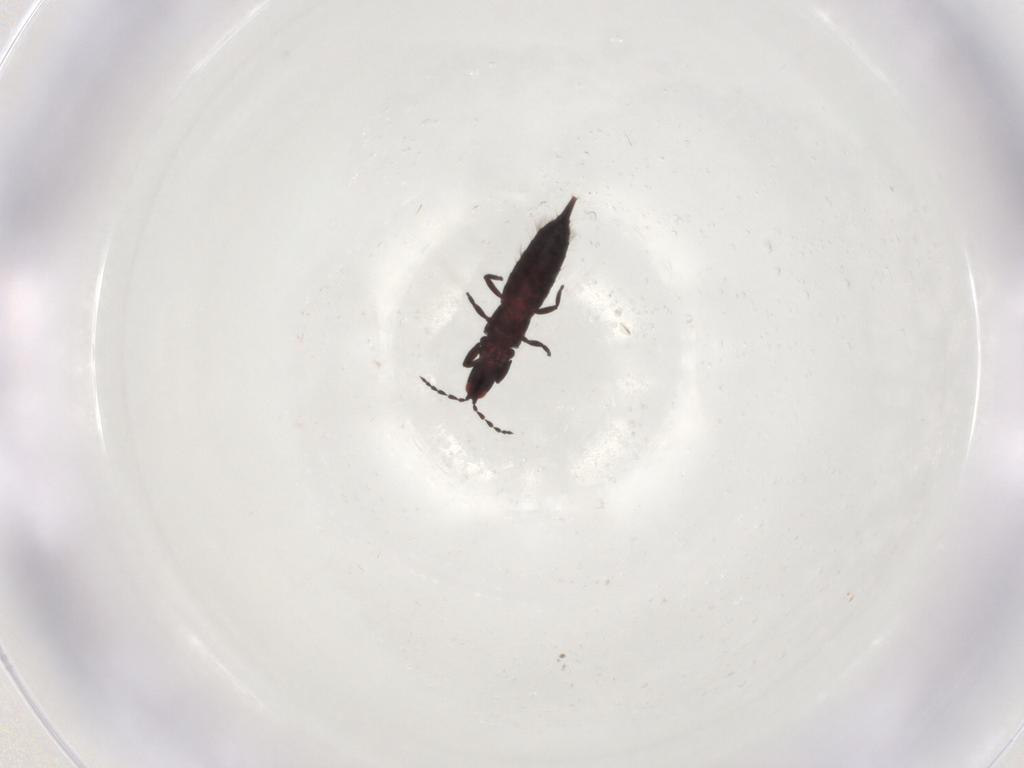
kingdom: Animalia
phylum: Arthropoda
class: Insecta
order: Thysanoptera
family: Phlaeothripidae
